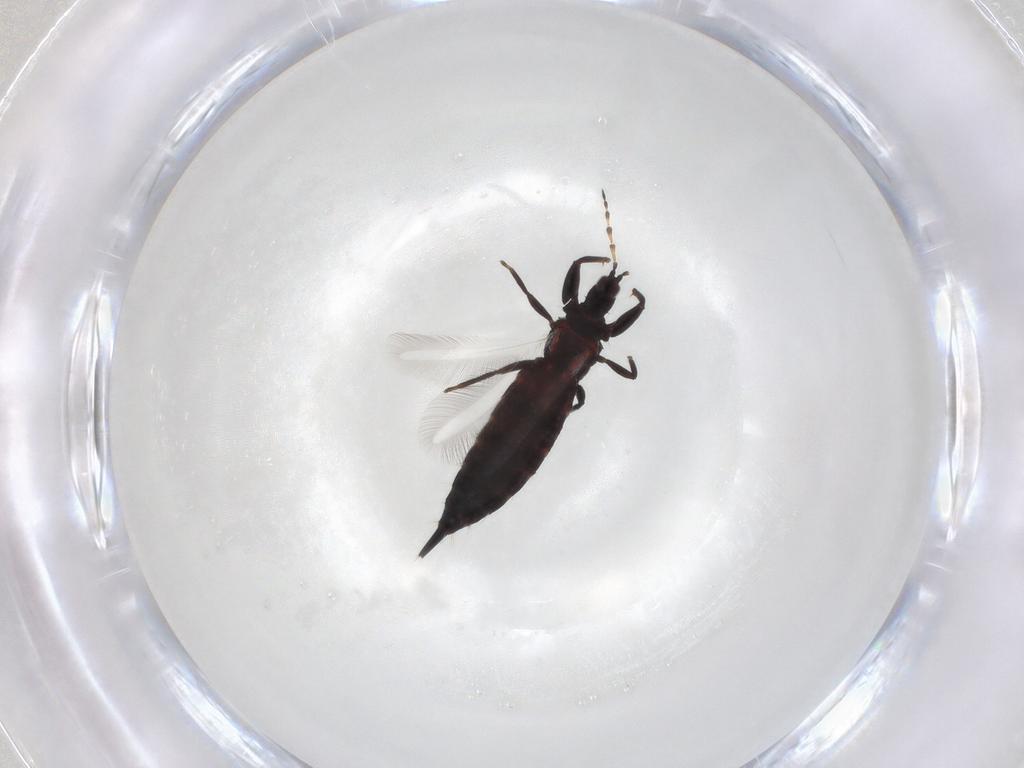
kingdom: Animalia
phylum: Arthropoda
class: Insecta
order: Thysanoptera
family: Phlaeothripidae
